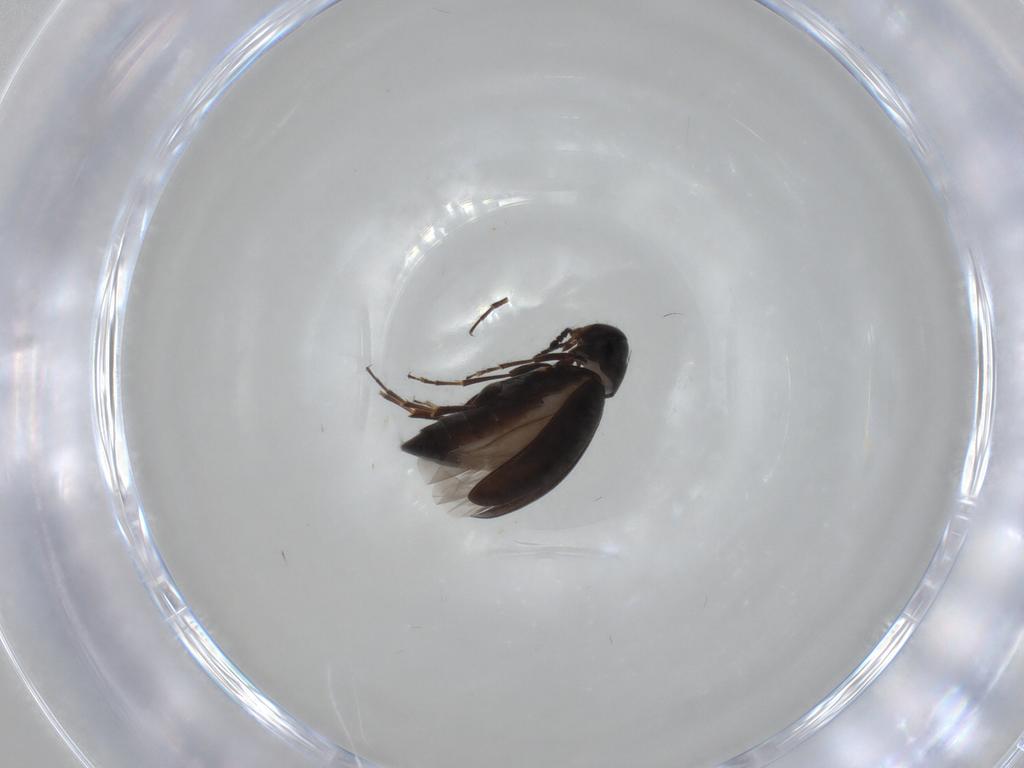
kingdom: Animalia
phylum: Arthropoda
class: Insecta
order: Coleoptera
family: Scraptiidae
